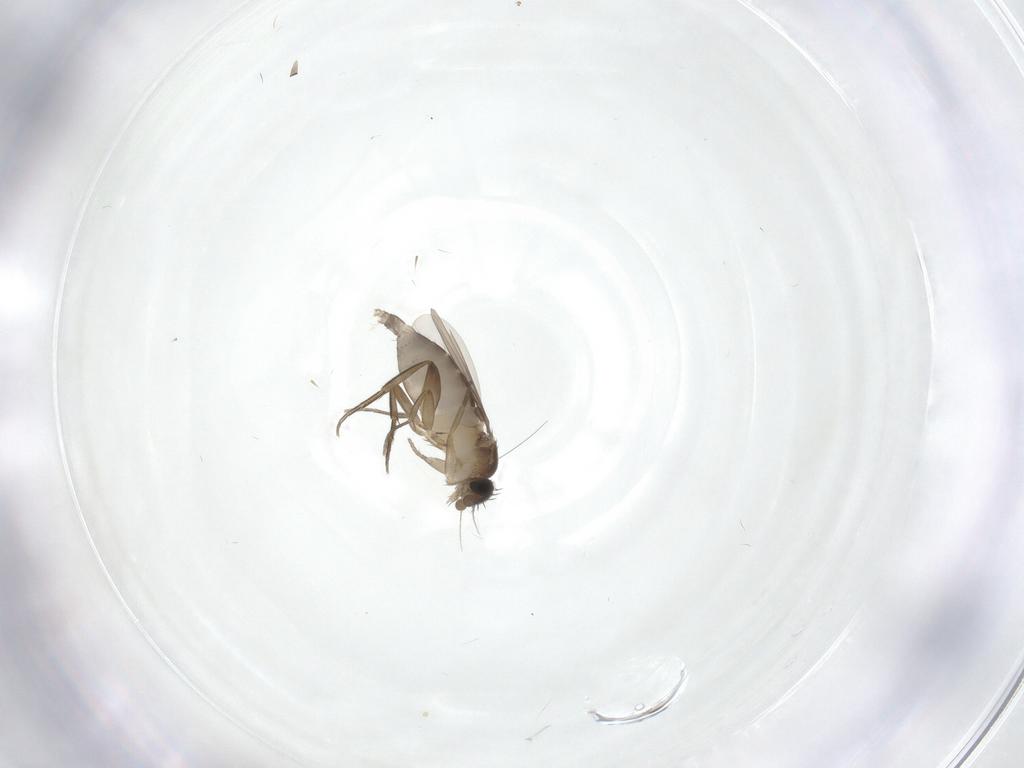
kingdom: Animalia
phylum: Arthropoda
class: Insecta
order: Diptera
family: Phoridae
